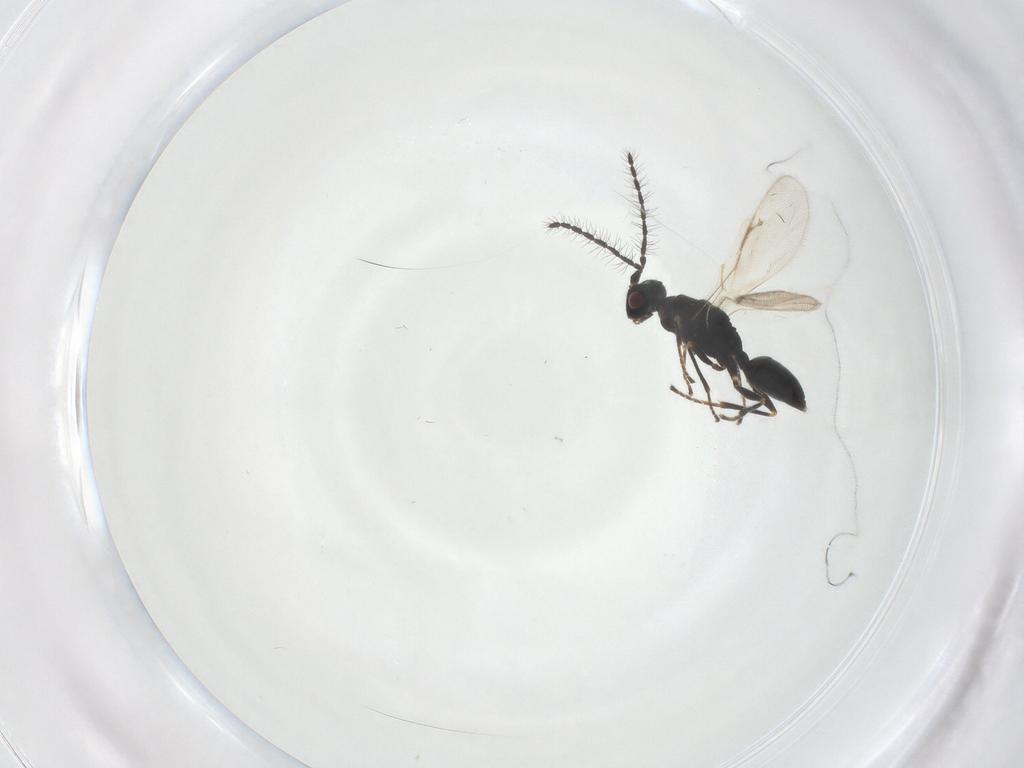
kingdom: Animalia
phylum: Arthropoda
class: Insecta
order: Hymenoptera
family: Eurytomidae
